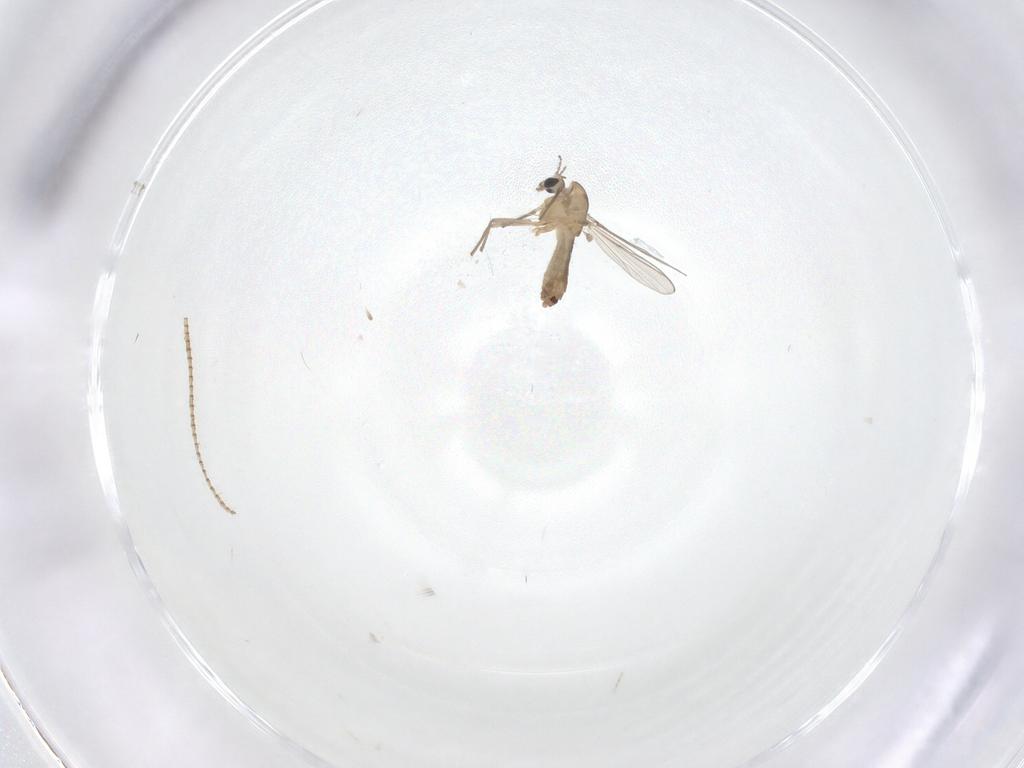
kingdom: Animalia
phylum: Arthropoda
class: Insecta
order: Diptera
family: Chironomidae
